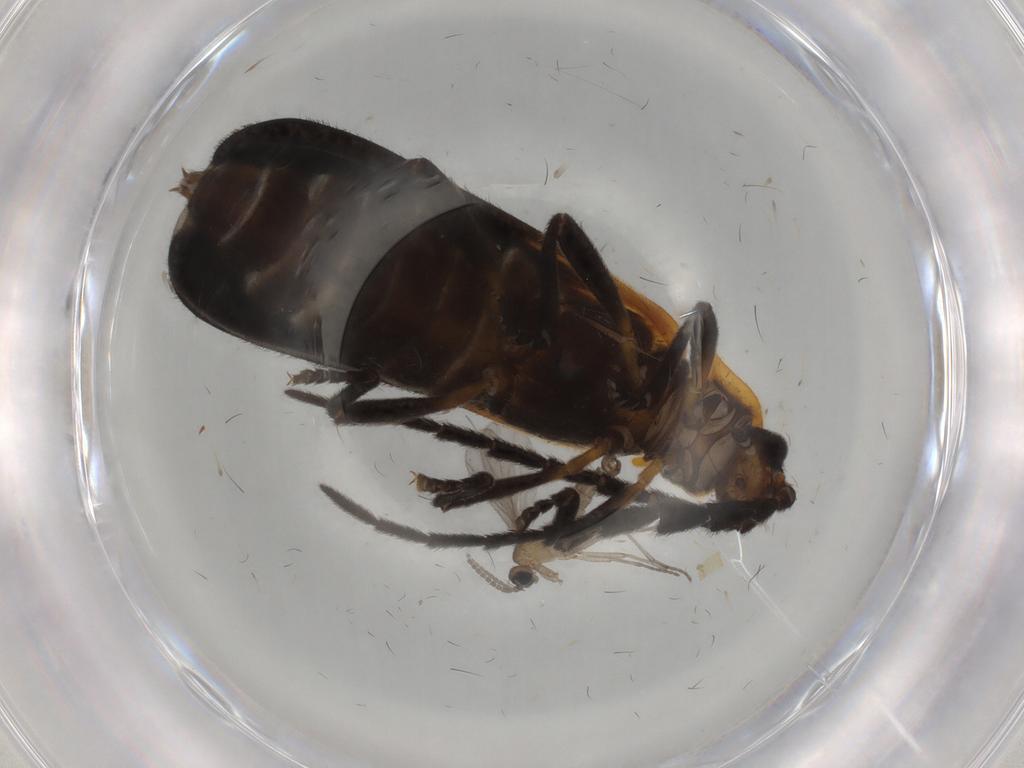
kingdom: Animalia
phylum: Arthropoda
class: Insecta
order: Coleoptera
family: Lycidae
